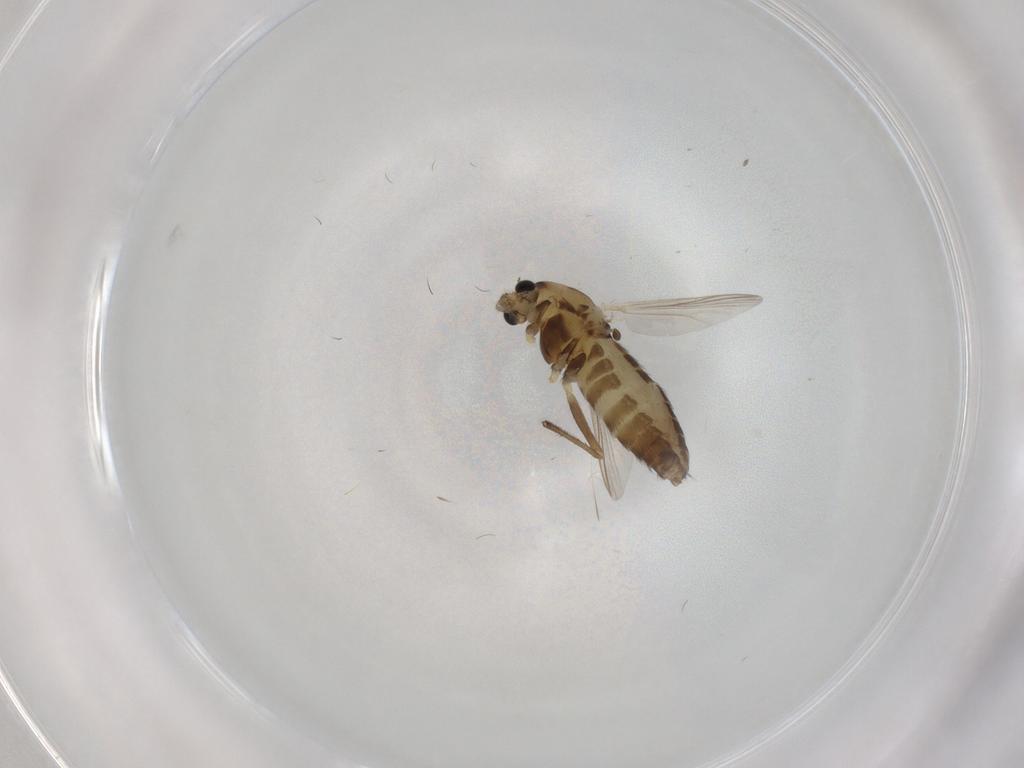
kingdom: Animalia
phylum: Arthropoda
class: Insecta
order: Diptera
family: Chironomidae
